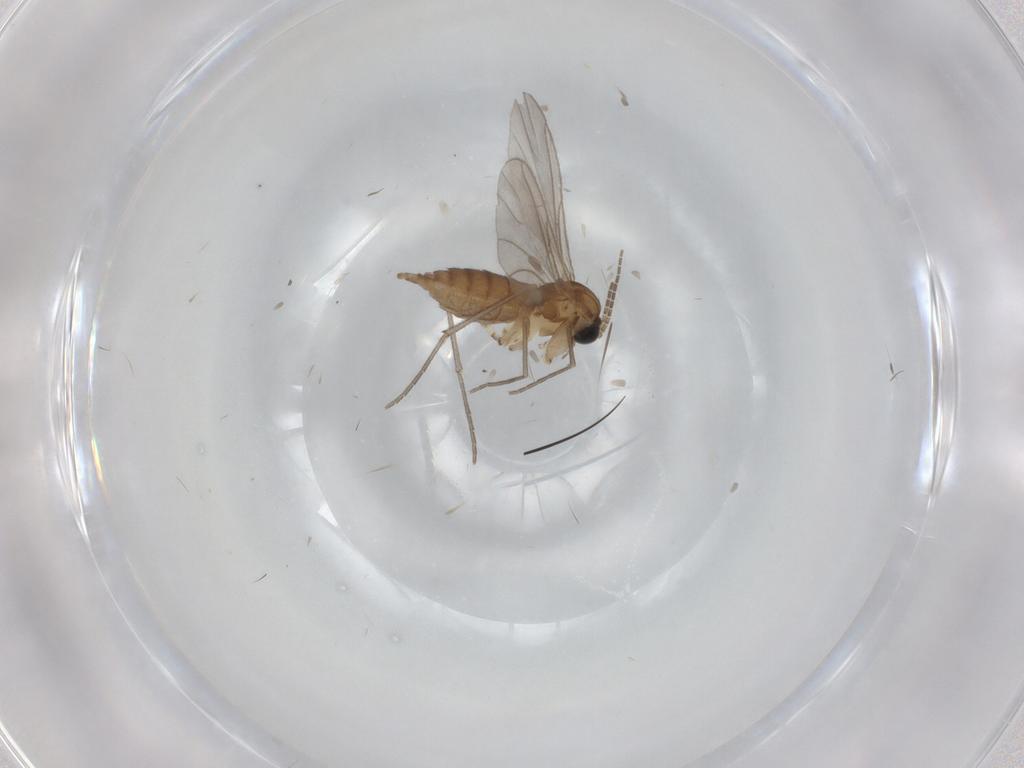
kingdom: Animalia
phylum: Arthropoda
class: Insecta
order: Diptera
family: Sciaridae
